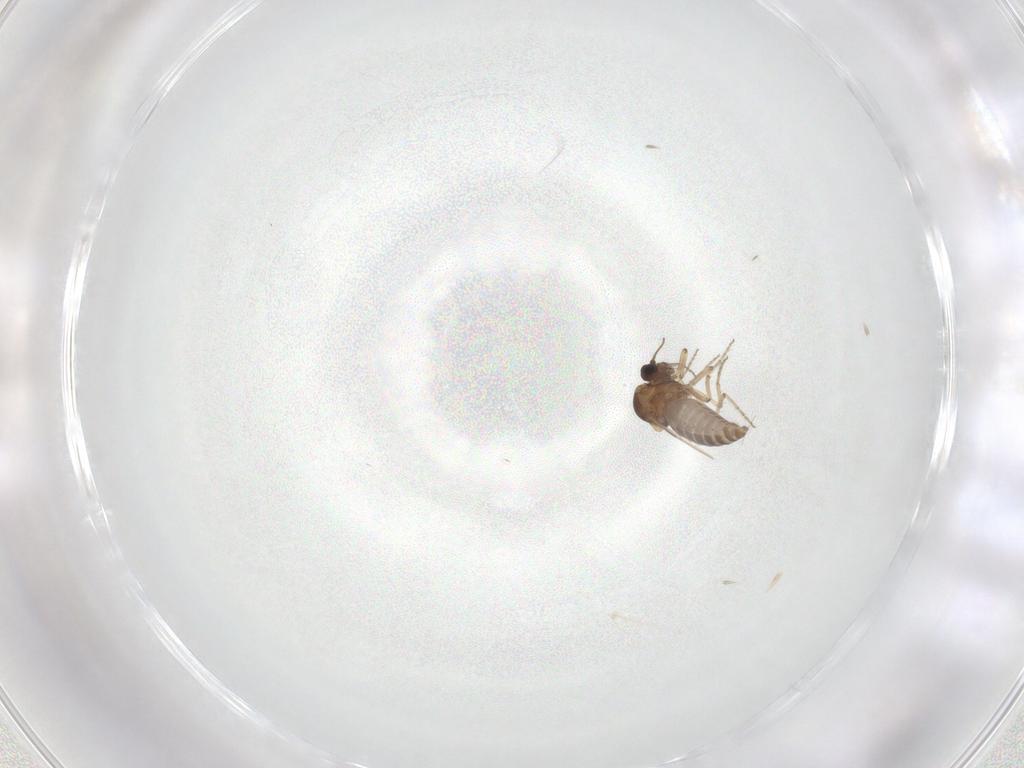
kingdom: Animalia
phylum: Arthropoda
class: Insecta
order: Diptera
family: Ceratopogonidae
